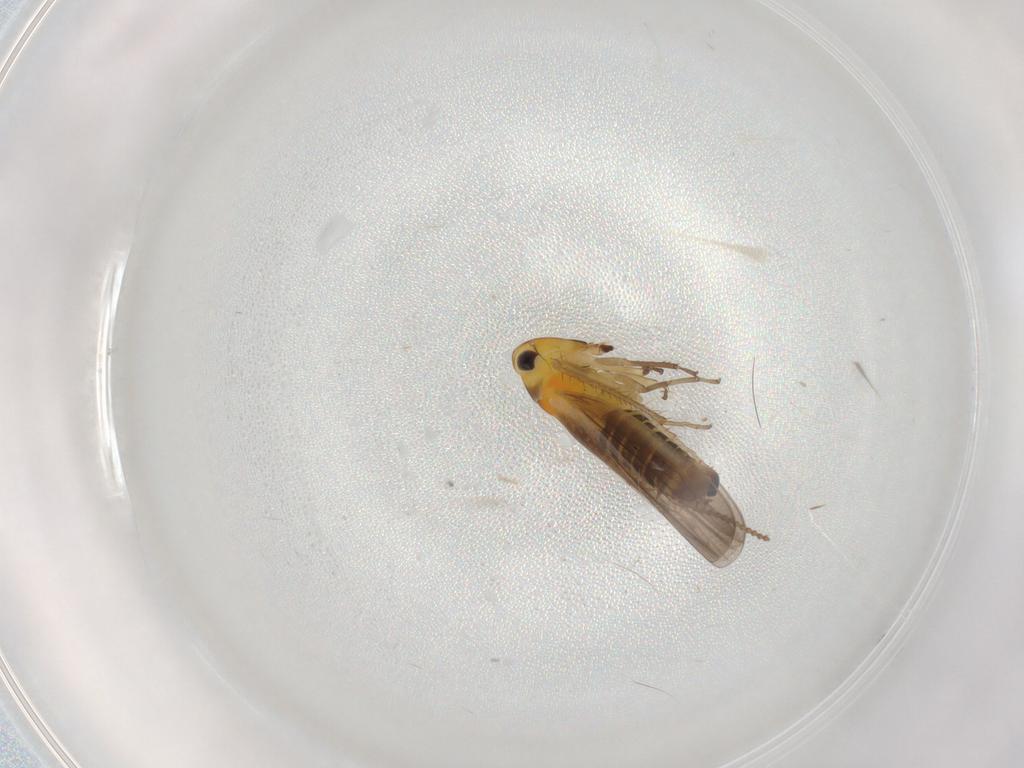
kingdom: Animalia
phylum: Arthropoda
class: Insecta
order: Hemiptera
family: Cicadellidae
